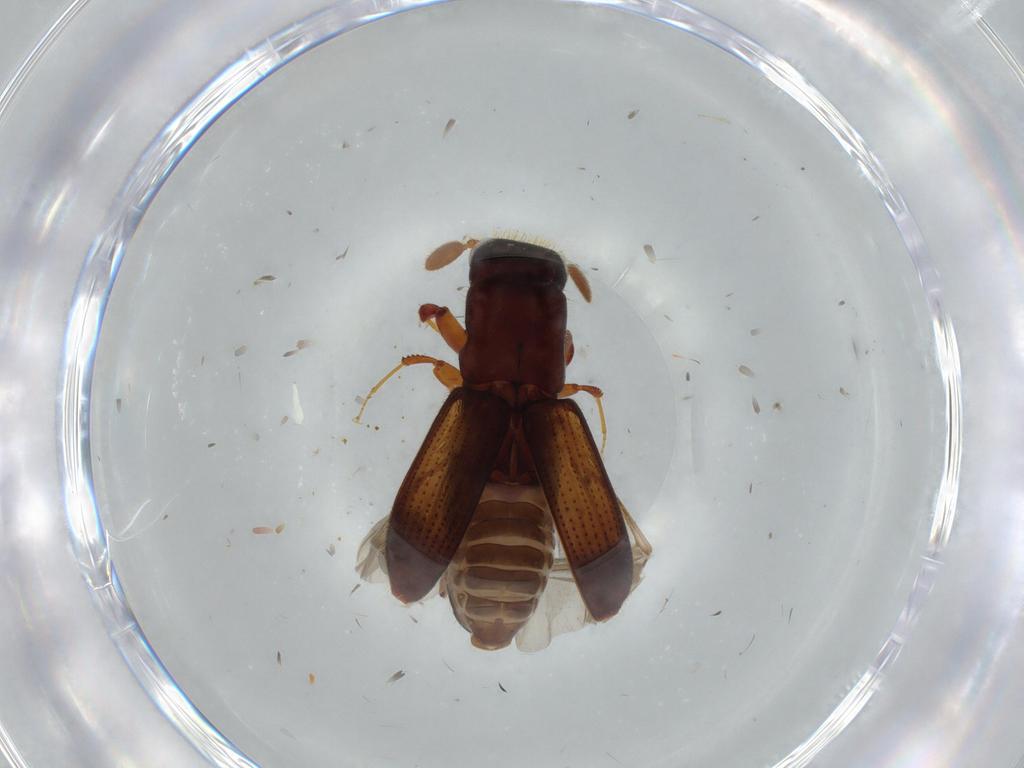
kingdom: Animalia
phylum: Arthropoda
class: Insecta
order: Coleoptera
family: Curculionidae
